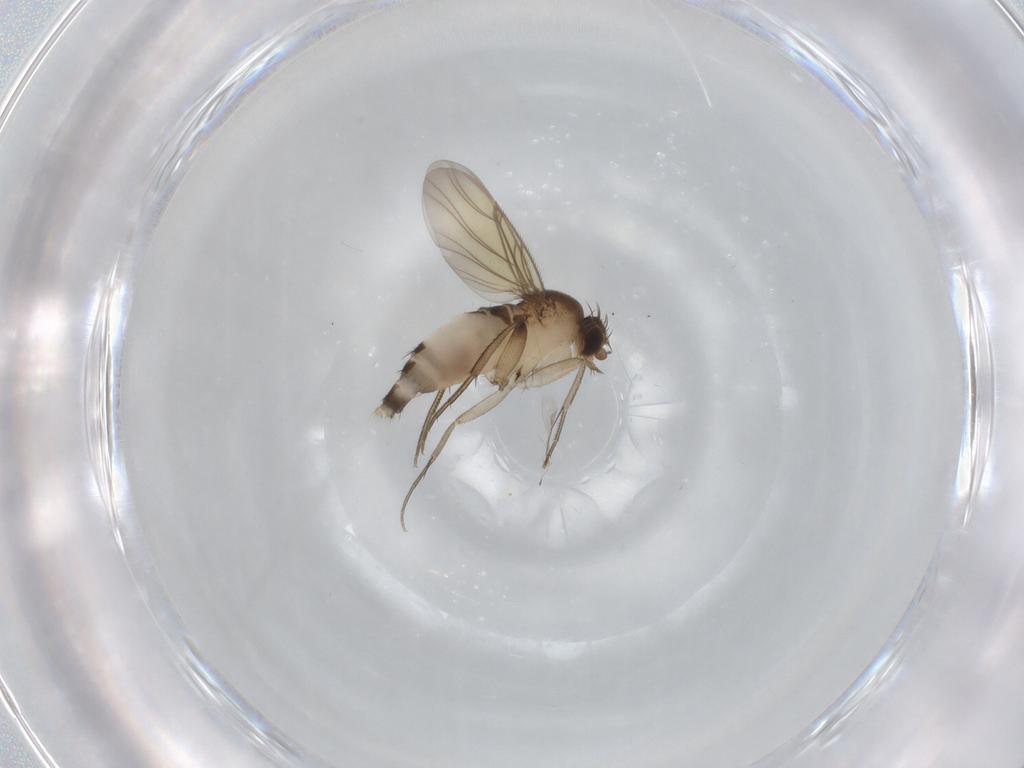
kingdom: Animalia
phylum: Arthropoda
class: Insecta
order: Diptera
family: Phoridae
